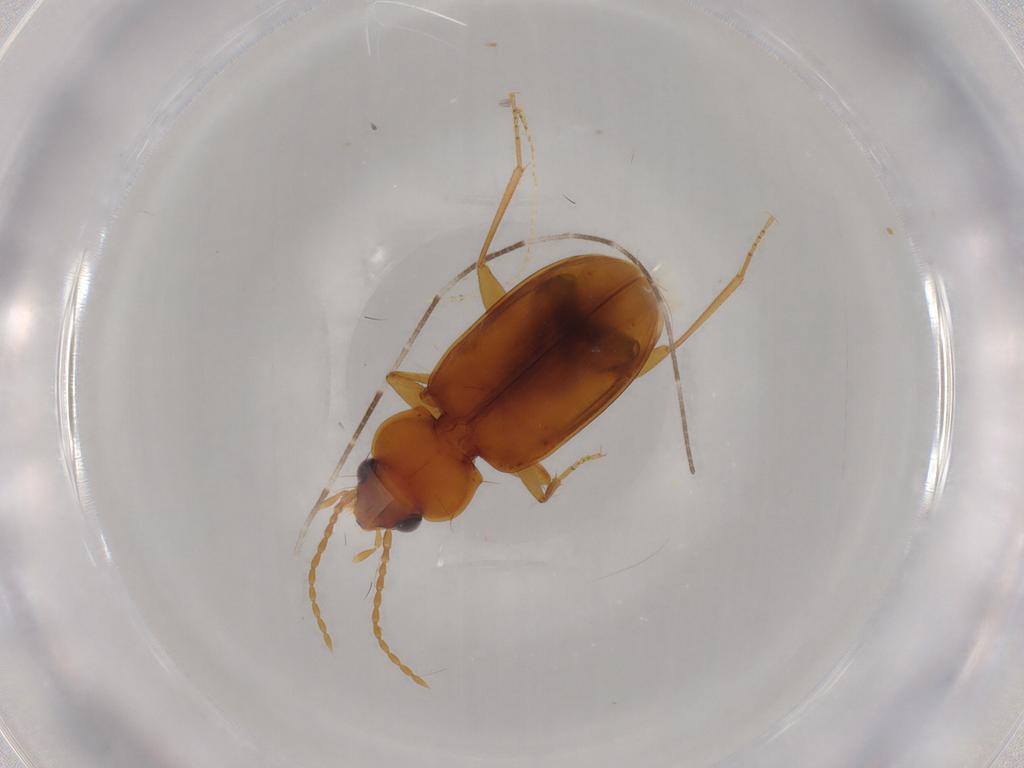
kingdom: Animalia
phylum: Arthropoda
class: Insecta
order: Coleoptera
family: Carabidae
